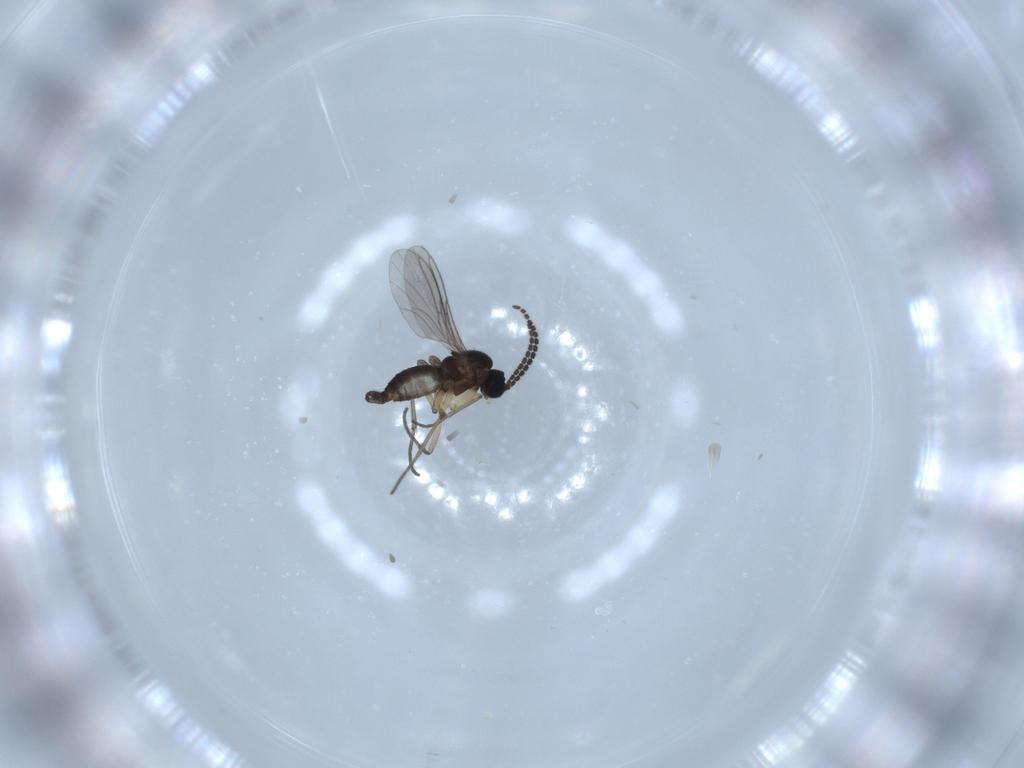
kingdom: Animalia
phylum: Arthropoda
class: Insecta
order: Diptera
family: Sciaridae
